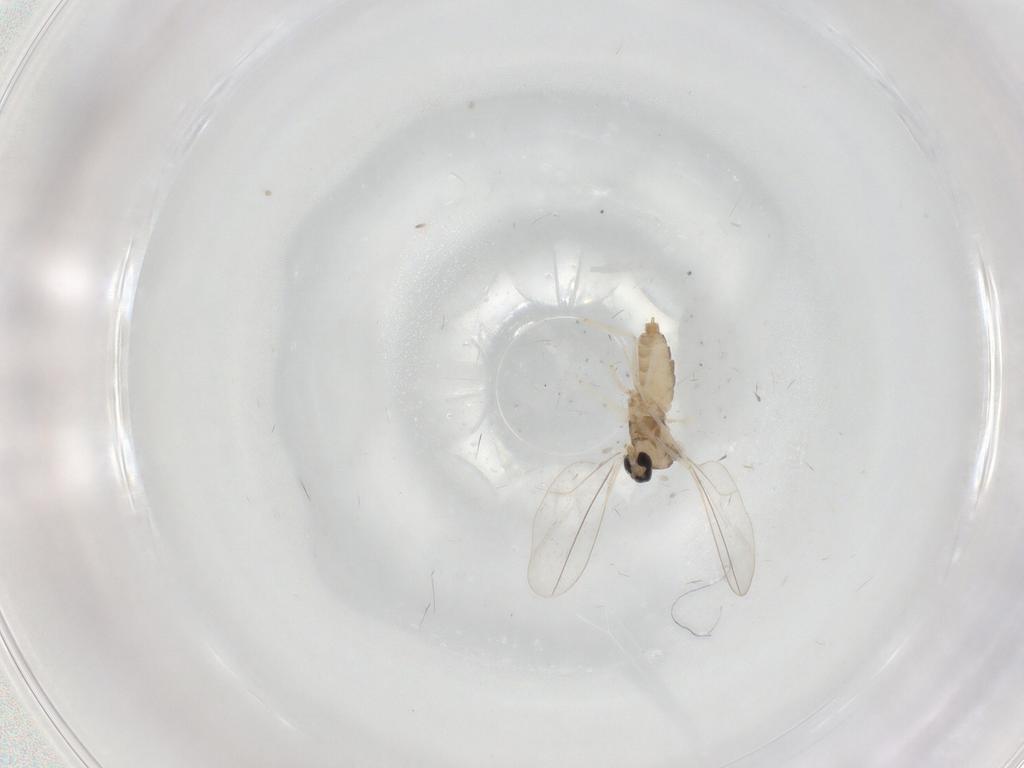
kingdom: Animalia
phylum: Arthropoda
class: Insecta
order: Diptera
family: Cecidomyiidae
